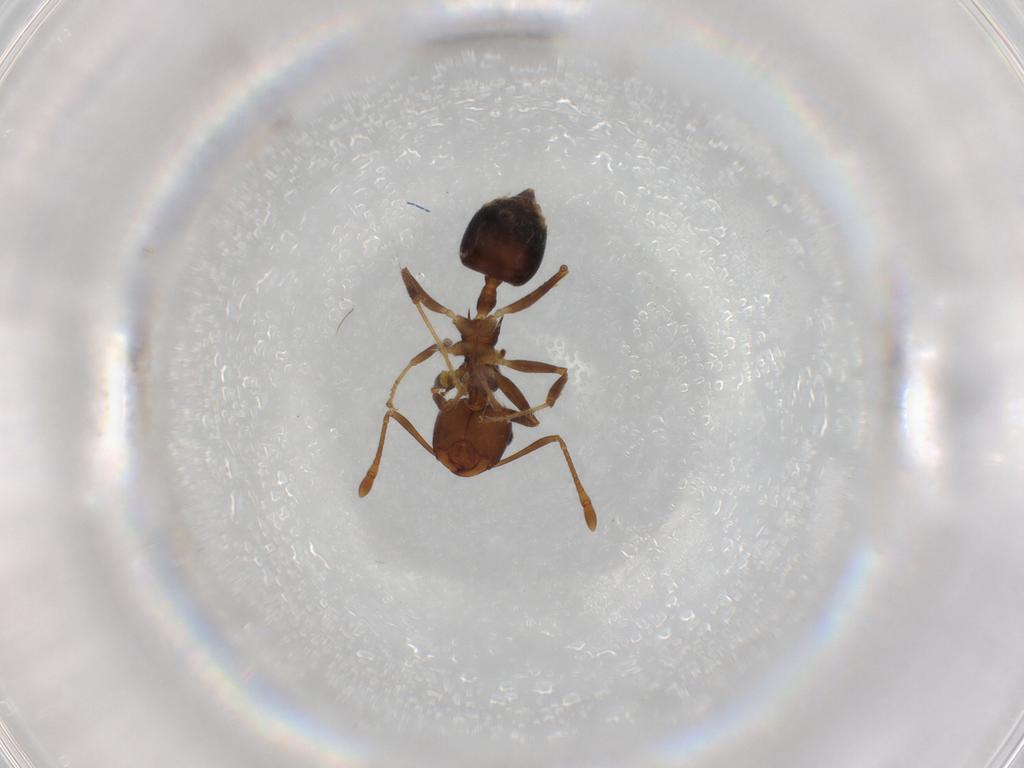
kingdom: Animalia
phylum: Arthropoda
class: Insecta
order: Hymenoptera
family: Formicidae
